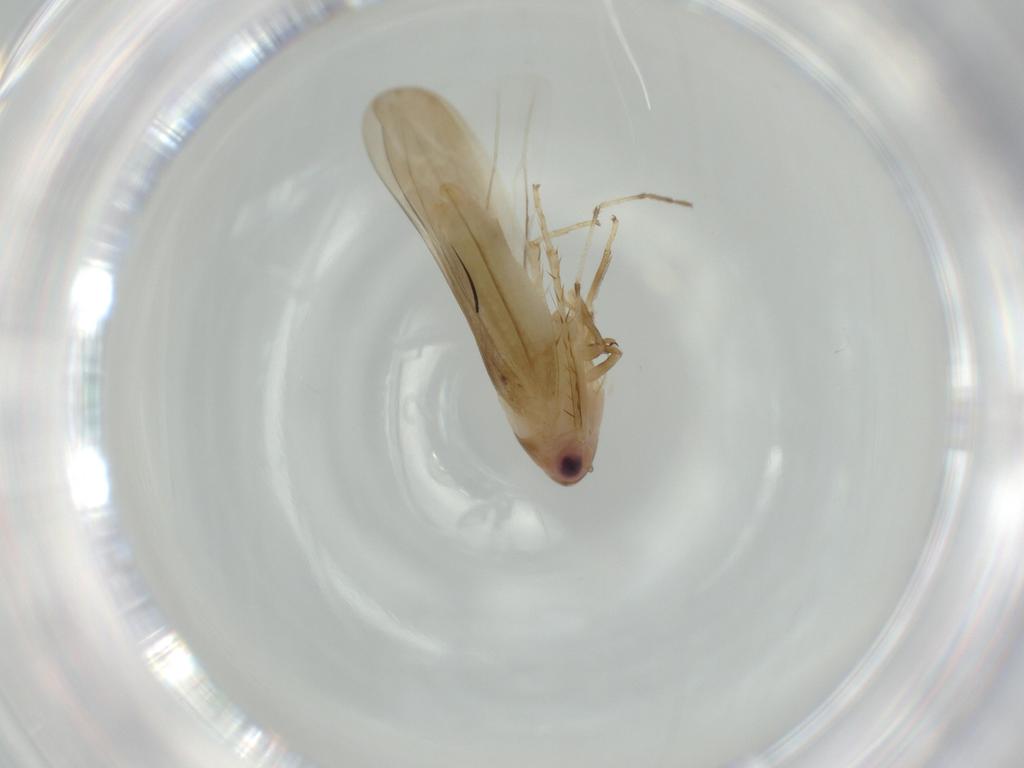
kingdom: Animalia
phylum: Arthropoda
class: Insecta
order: Hemiptera
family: Cicadellidae
